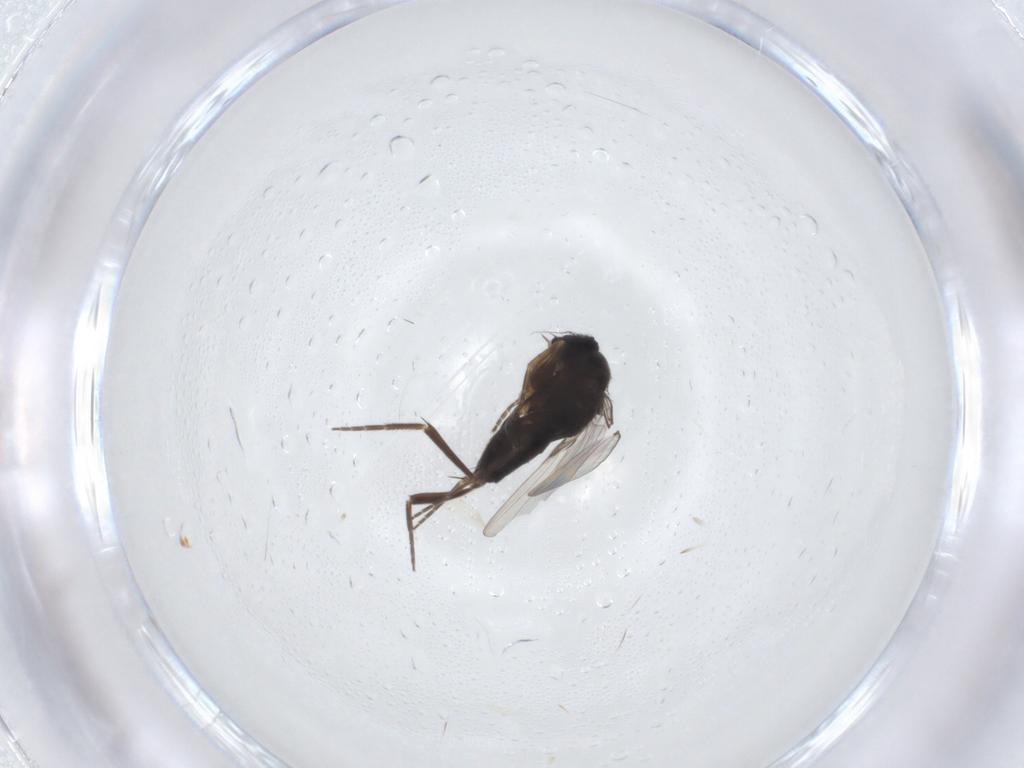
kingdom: Animalia
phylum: Arthropoda
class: Insecta
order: Diptera
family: Phoridae
